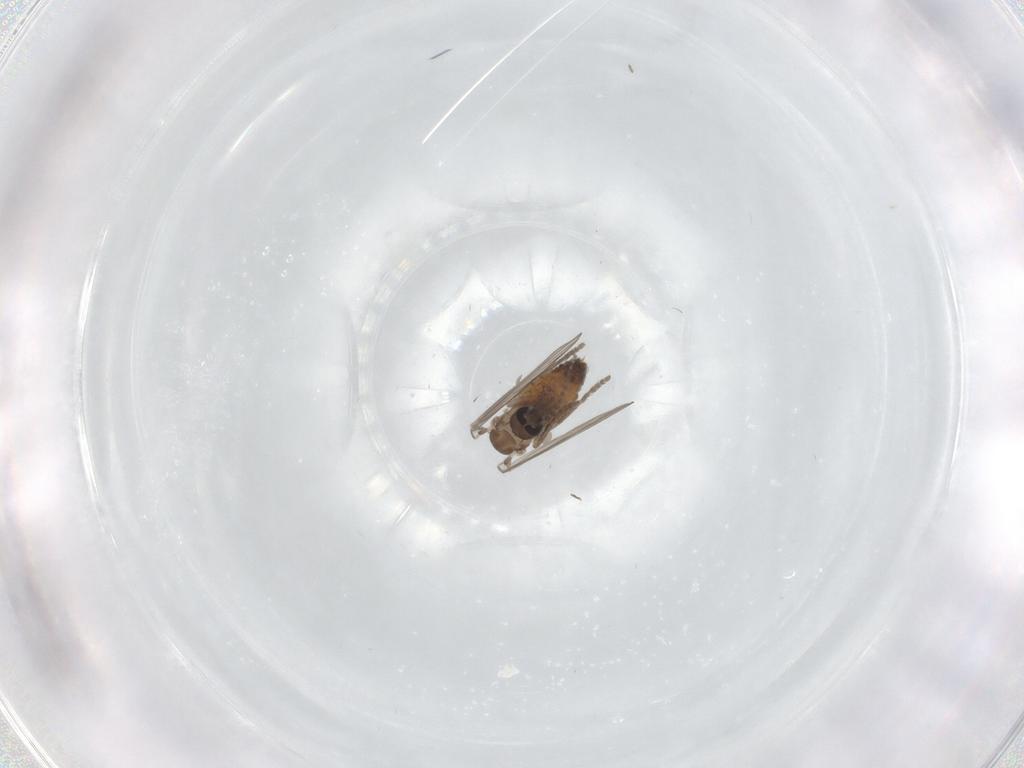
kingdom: Animalia
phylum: Arthropoda
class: Insecta
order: Diptera
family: Psychodidae
